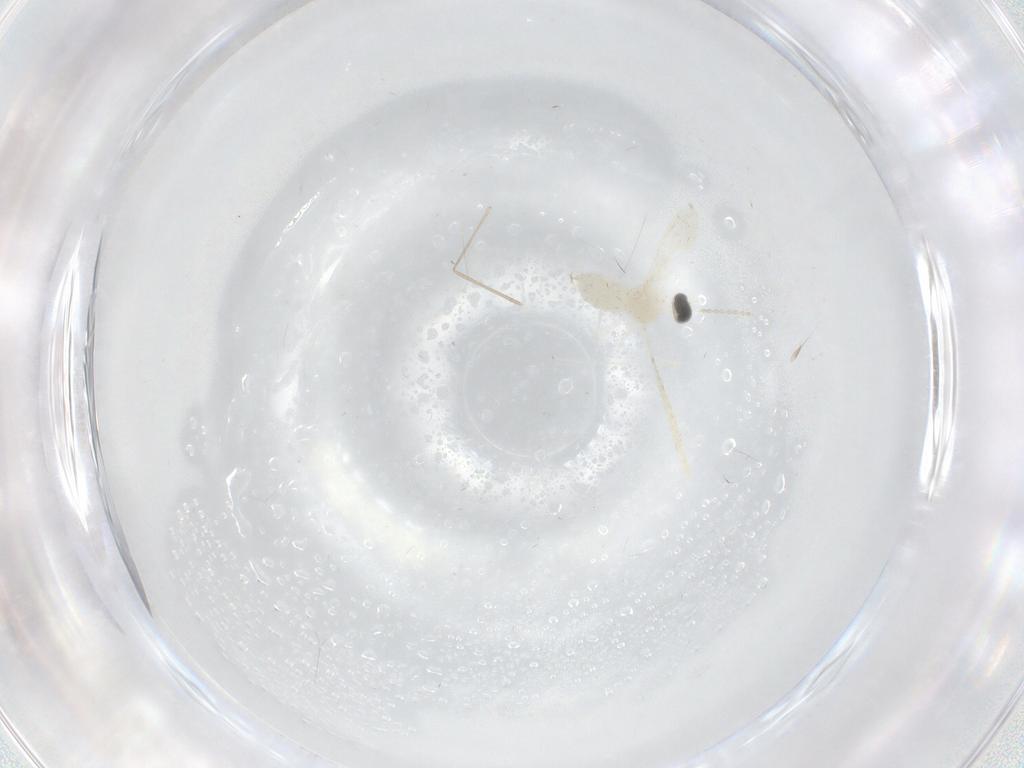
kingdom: Animalia
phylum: Arthropoda
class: Insecta
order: Diptera
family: Cecidomyiidae
